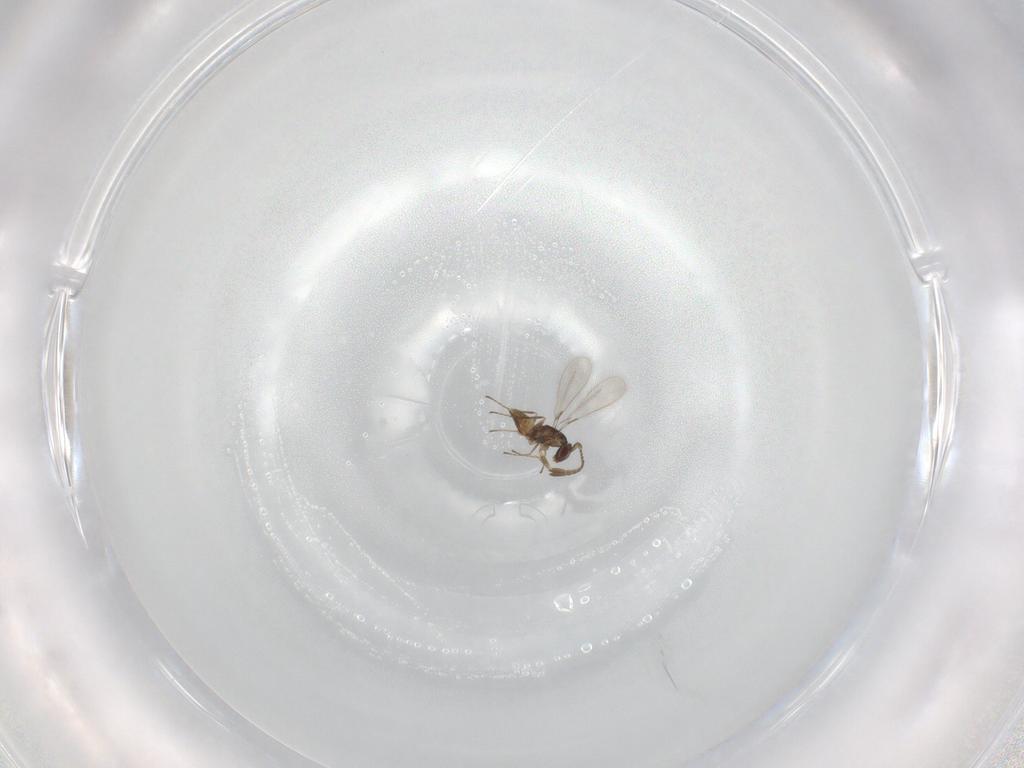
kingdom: Animalia
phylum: Arthropoda
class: Insecta
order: Hymenoptera
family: Mymaridae
